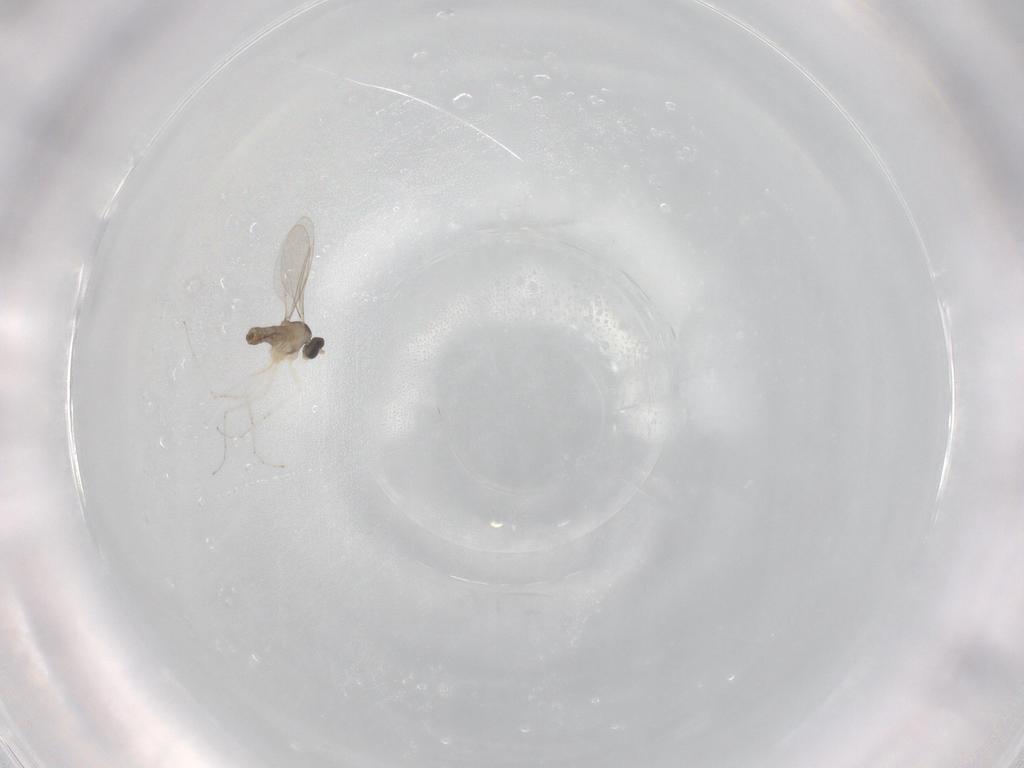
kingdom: Animalia
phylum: Arthropoda
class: Insecta
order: Diptera
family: Cecidomyiidae
